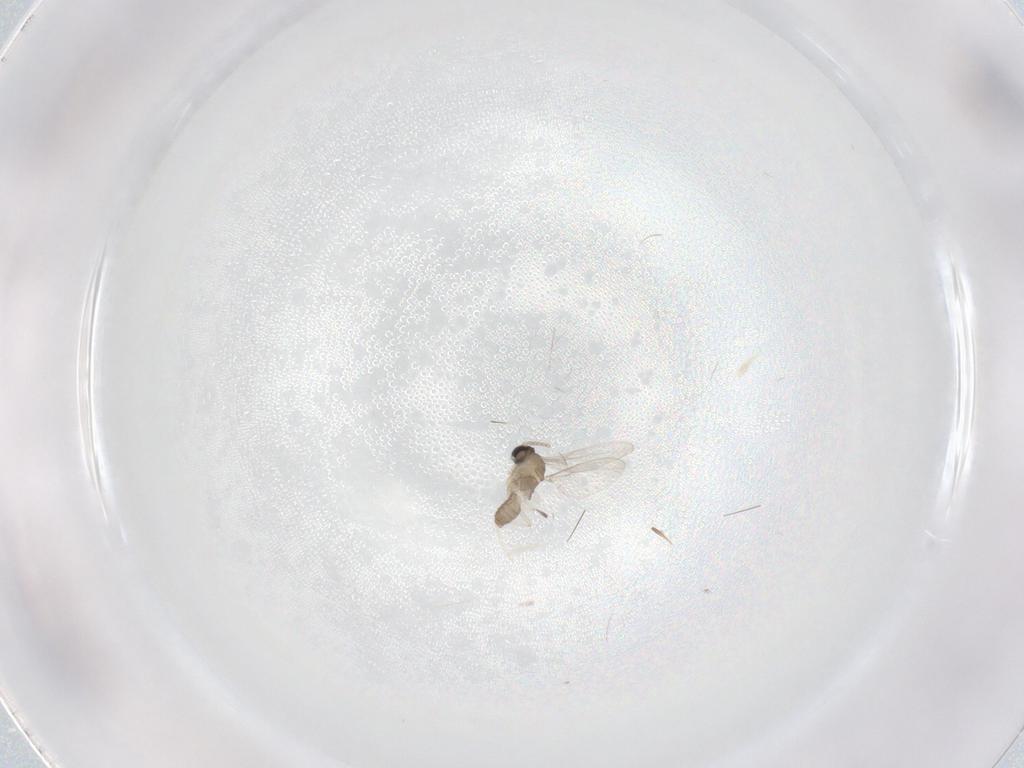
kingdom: Animalia
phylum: Arthropoda
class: Insecta
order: Diptera
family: Cecidomyiidae
